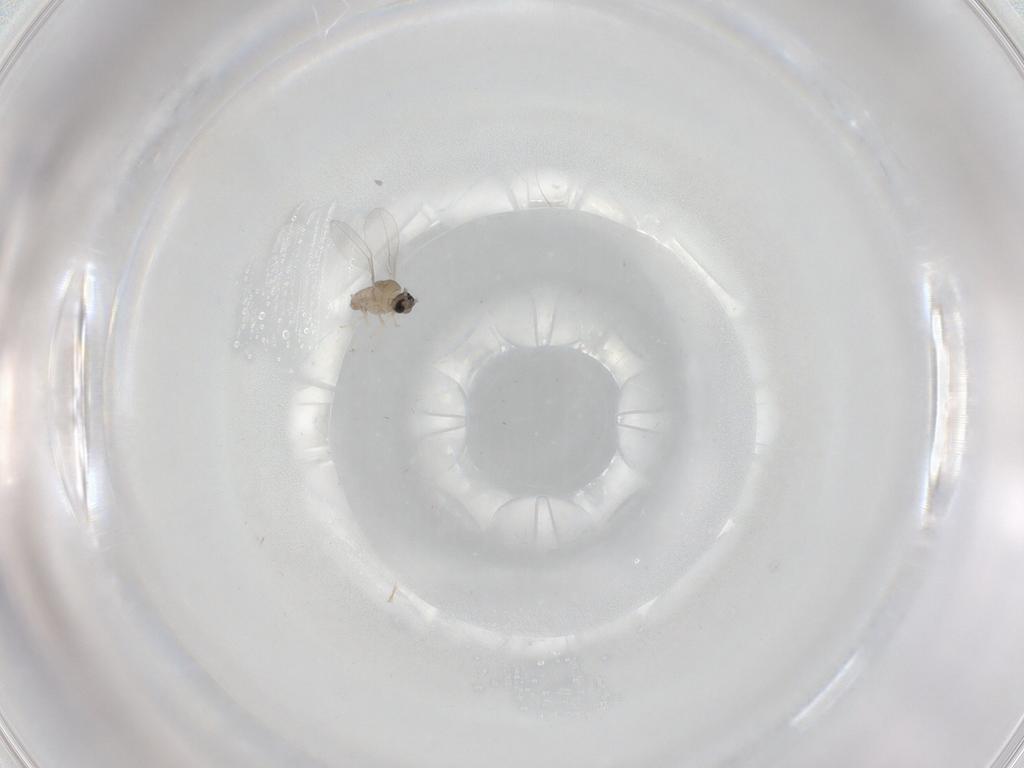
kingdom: Animalia
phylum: Arthropoda
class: Insecta
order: Diptera
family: Cecidomyiidae
